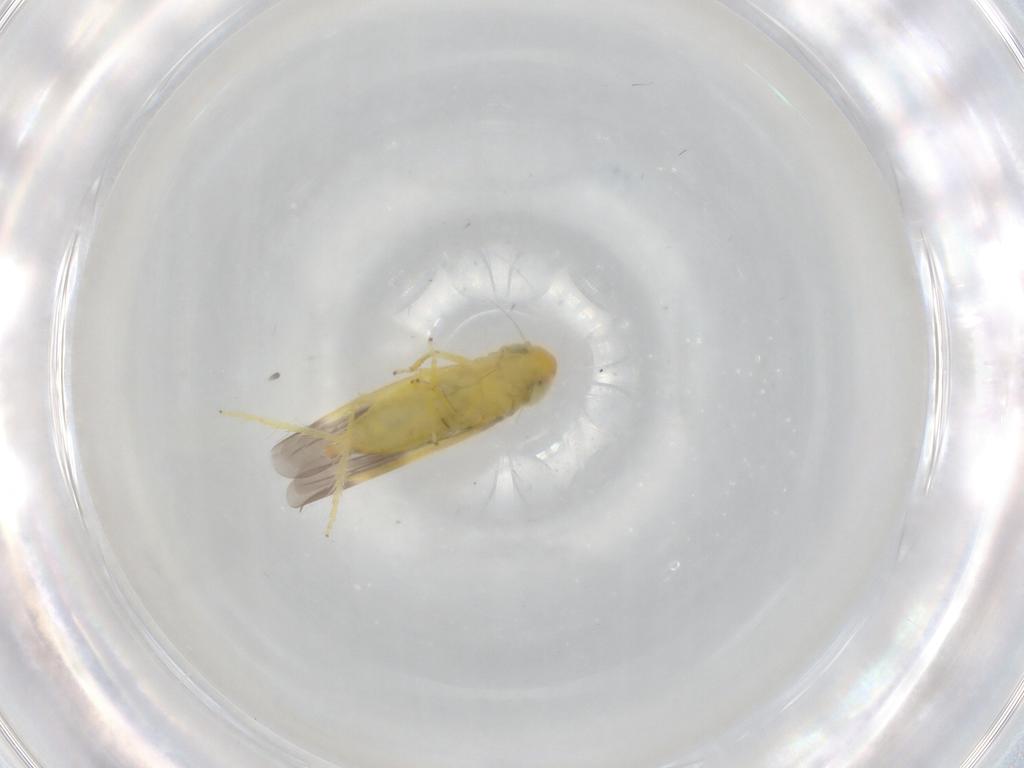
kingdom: Animalia
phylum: Arthropoda
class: Insecta
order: Hemiptera
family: Cicadellidae
